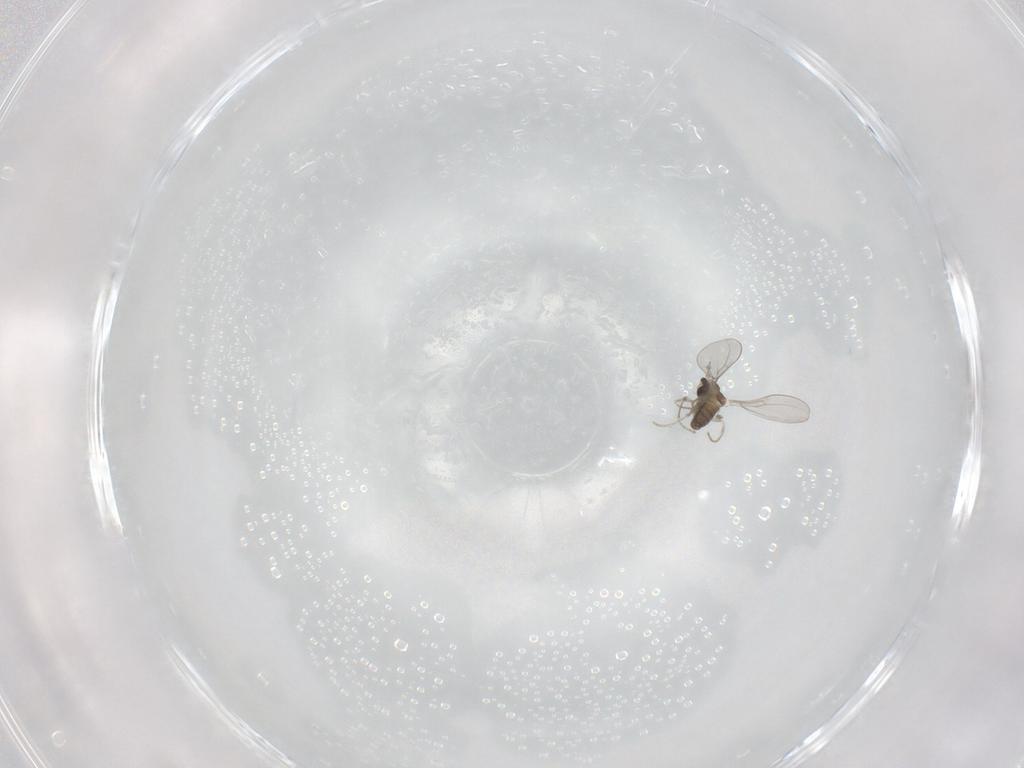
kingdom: Animalia
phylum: Arthropoda
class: Insecta
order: Diptera
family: Cecidomyiidae
